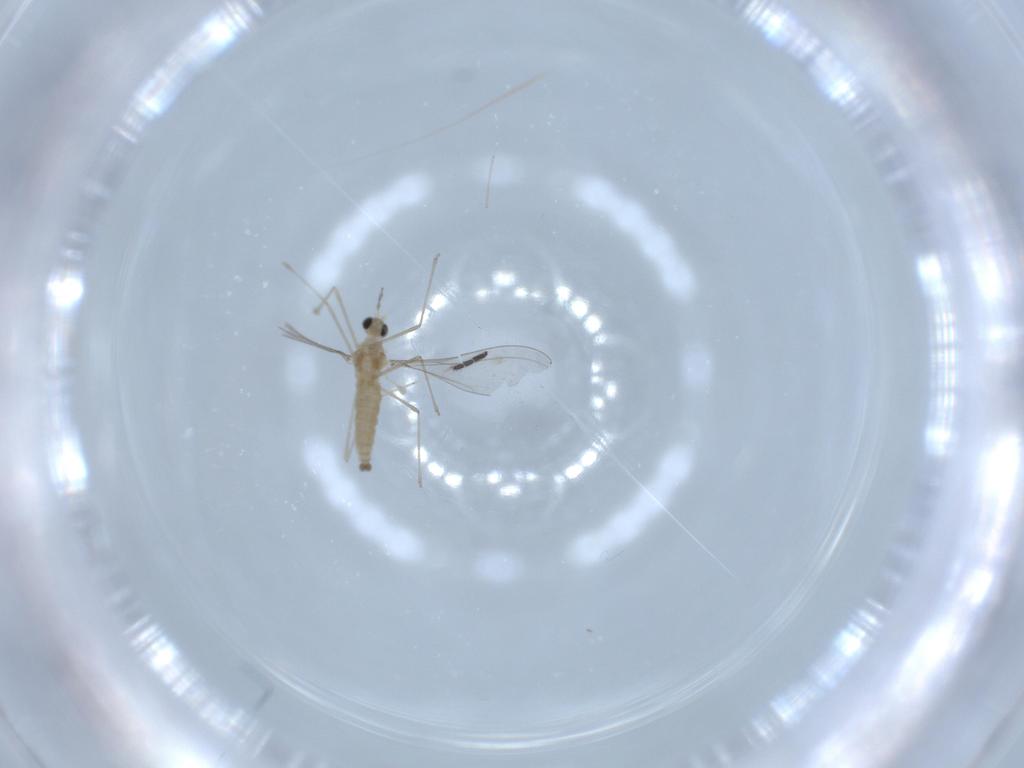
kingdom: Animalia
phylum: Arthropoda
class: Insecta
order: Diptera
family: Cecidomyiidae
